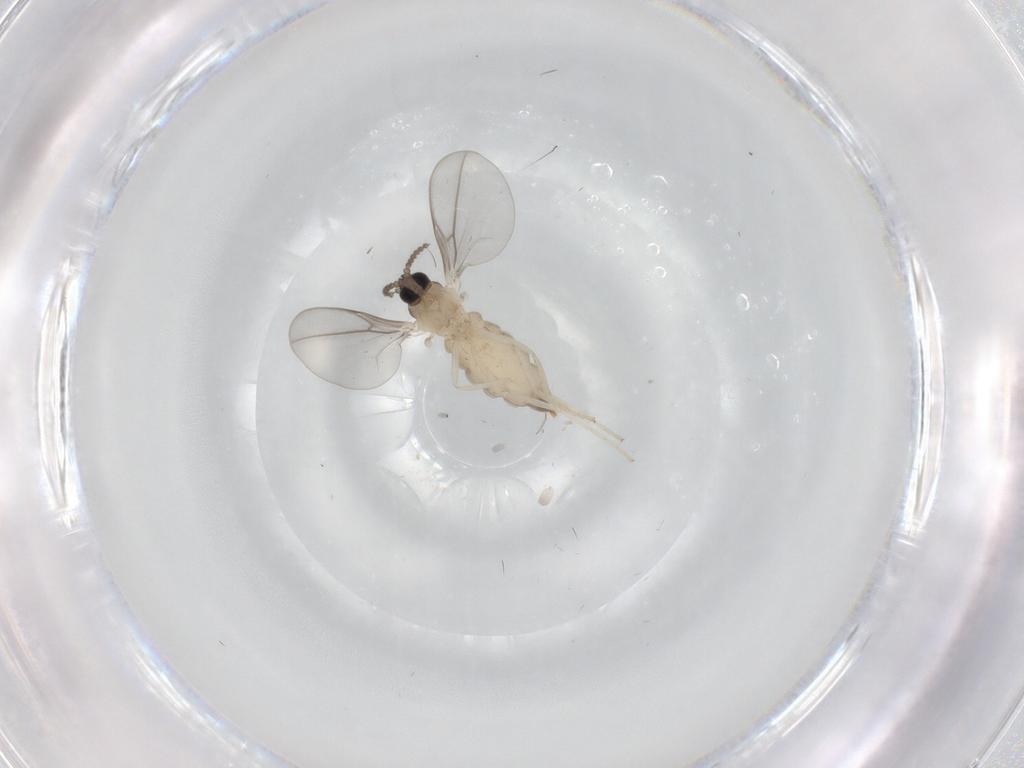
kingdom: Animalia
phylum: Arthropoda
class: Insecta
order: Diptera
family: Cecidomyiidae
